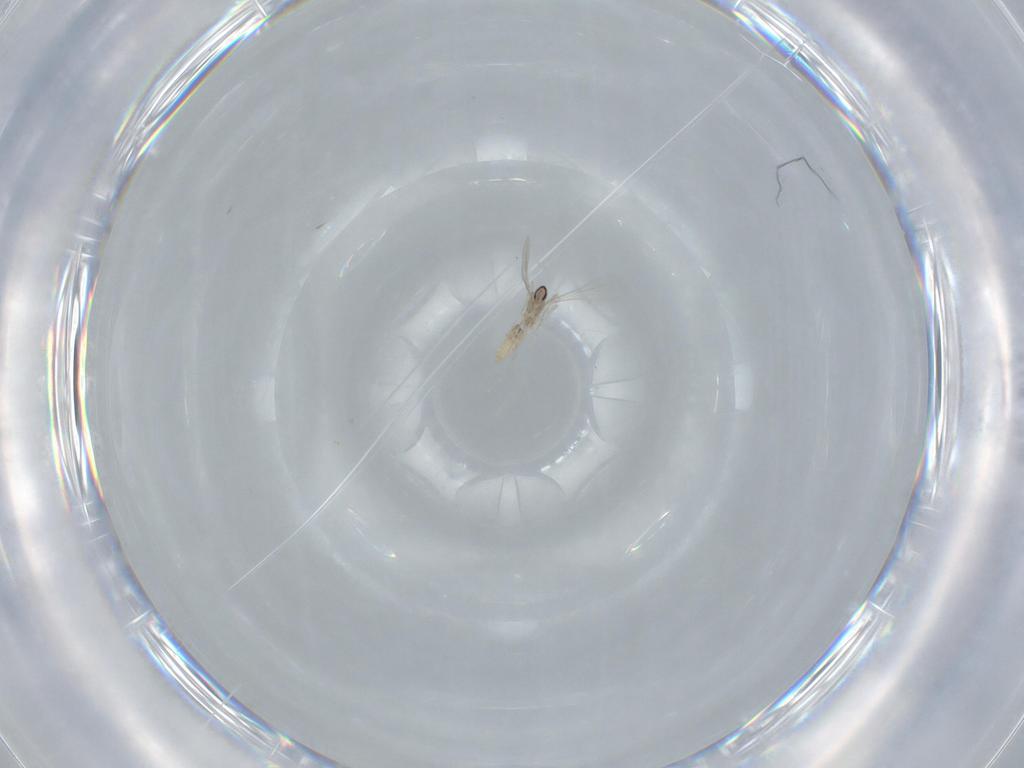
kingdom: Animalia
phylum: Arthropoda
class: Insecta
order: Diptera
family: Cecidomyiidae
